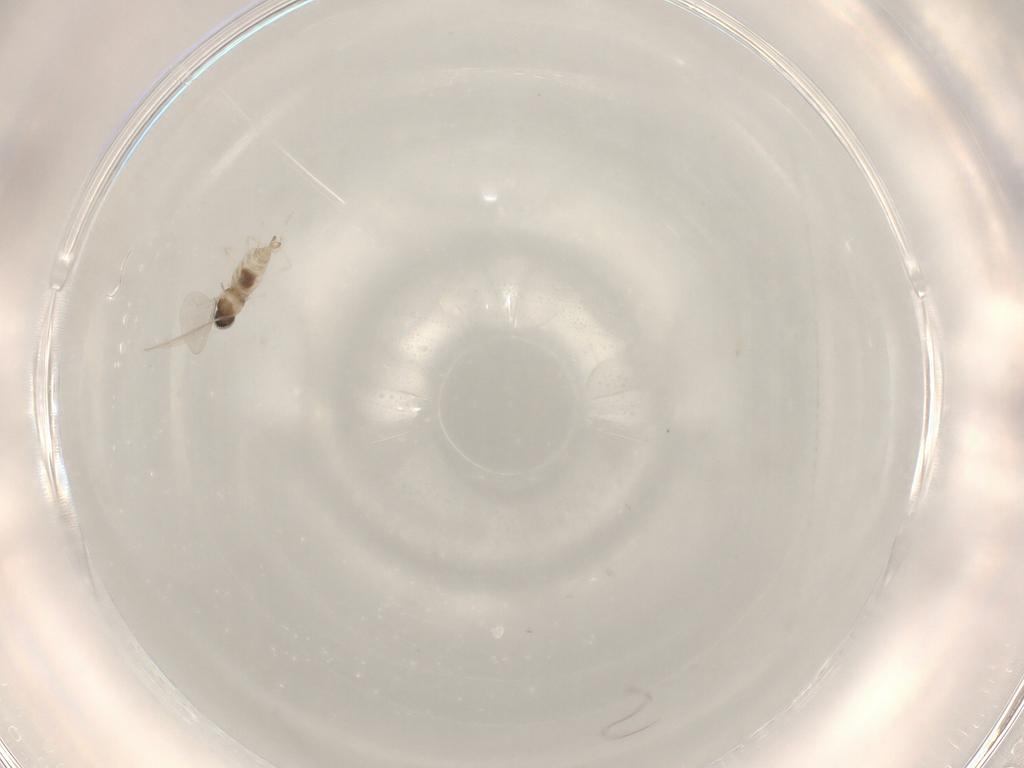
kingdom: Animalia
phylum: Arthropoda
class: Insecta
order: Diptera
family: Cecidomyiidae
